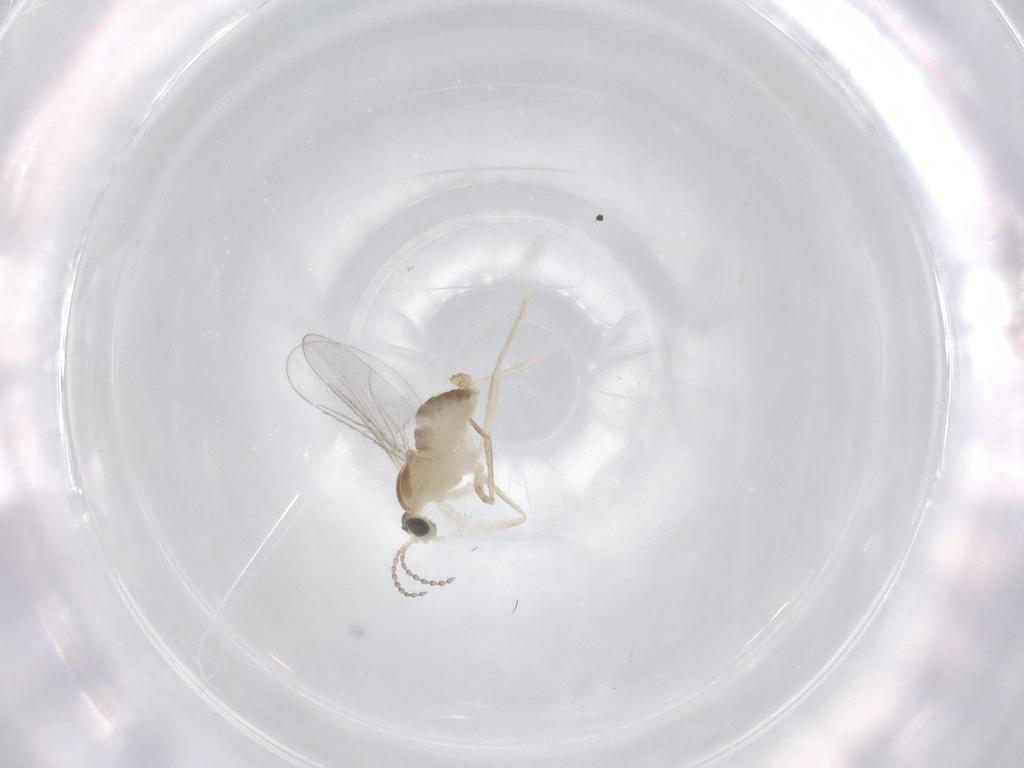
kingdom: Animalia
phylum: Arthropoda
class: Insecta
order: Diptera
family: Cecidomyiidae
